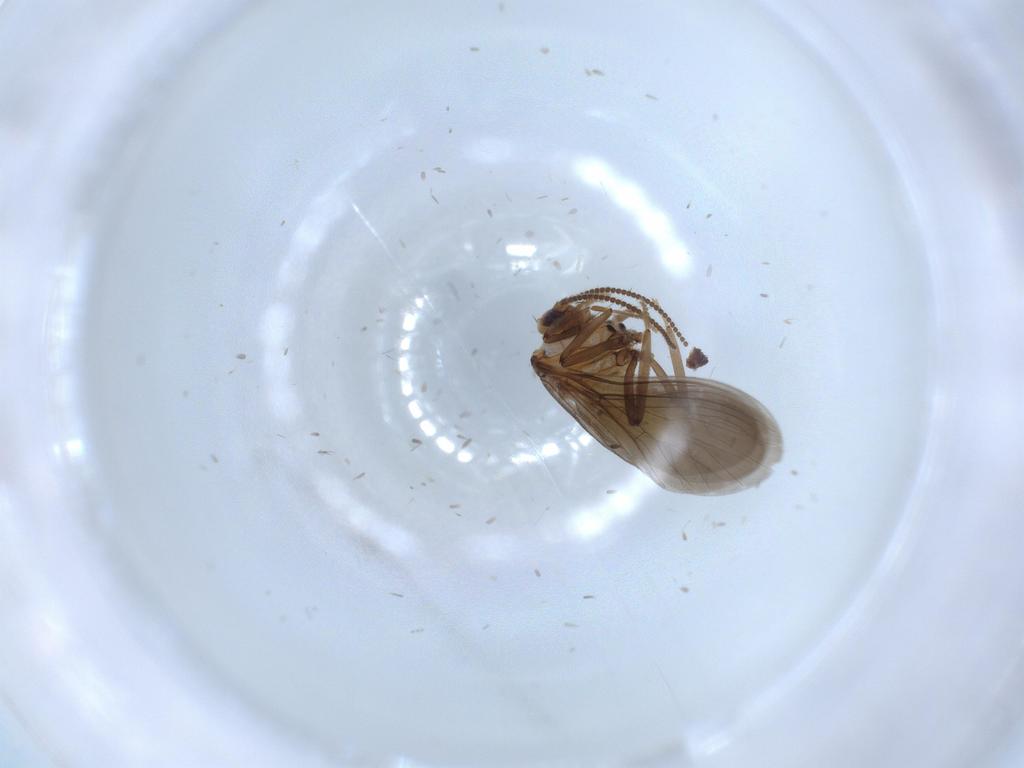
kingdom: Animalia
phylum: Arthropoda
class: Insecta
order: Neuroptera
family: Coniopterygidae
